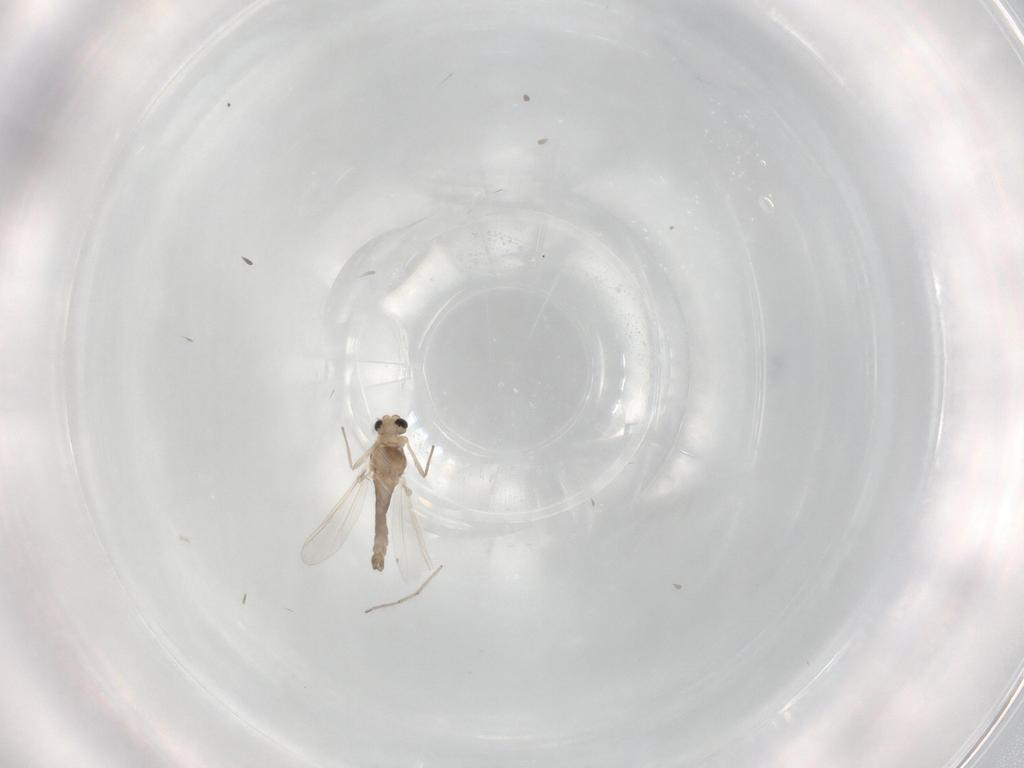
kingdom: Animalia
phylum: Arthropoda
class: Insecta
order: Diptera
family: Chironomidae
